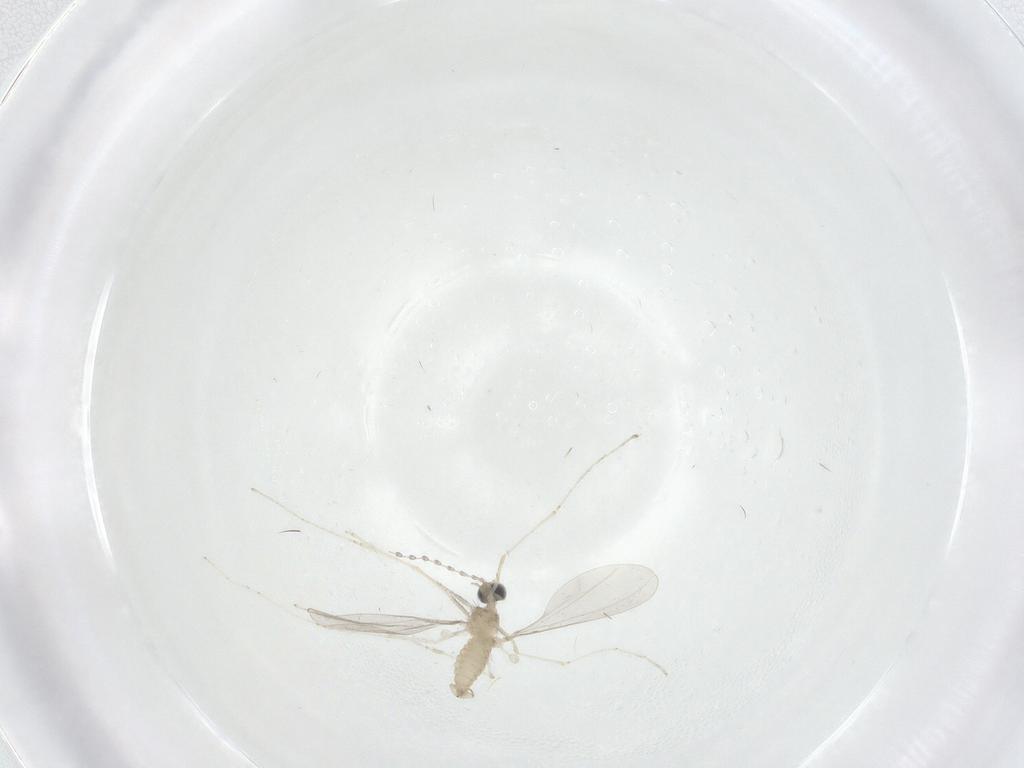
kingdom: Animalia
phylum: Arthropoda
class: Insecta
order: Diptera
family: Cecidomyiidae
